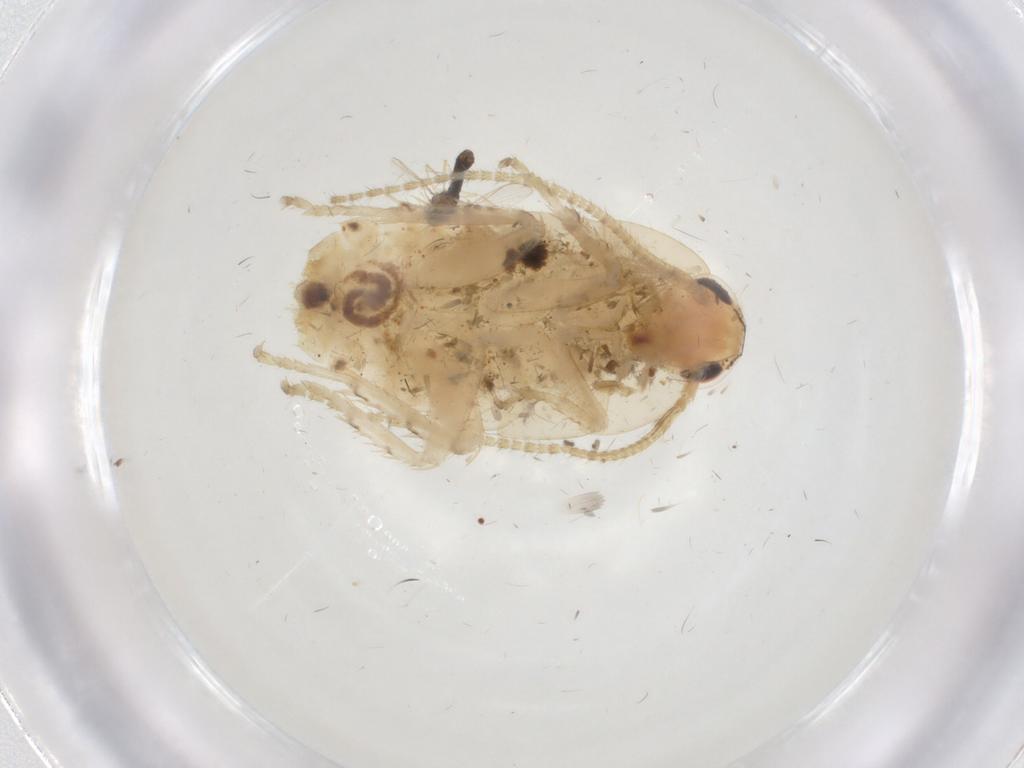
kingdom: Animalia
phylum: Arthropoda
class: Insecta
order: Blattodea
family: Ectobiidae
